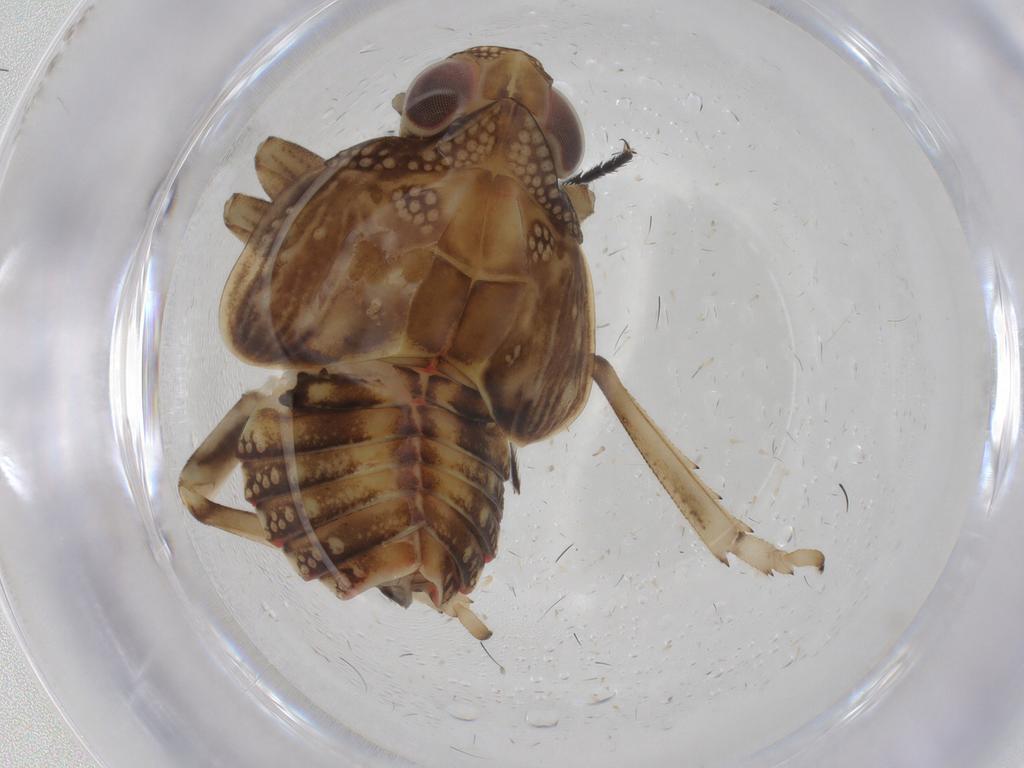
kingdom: Animalia
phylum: Arthropoda
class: Insecta
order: Hemiptera
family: Issidae
